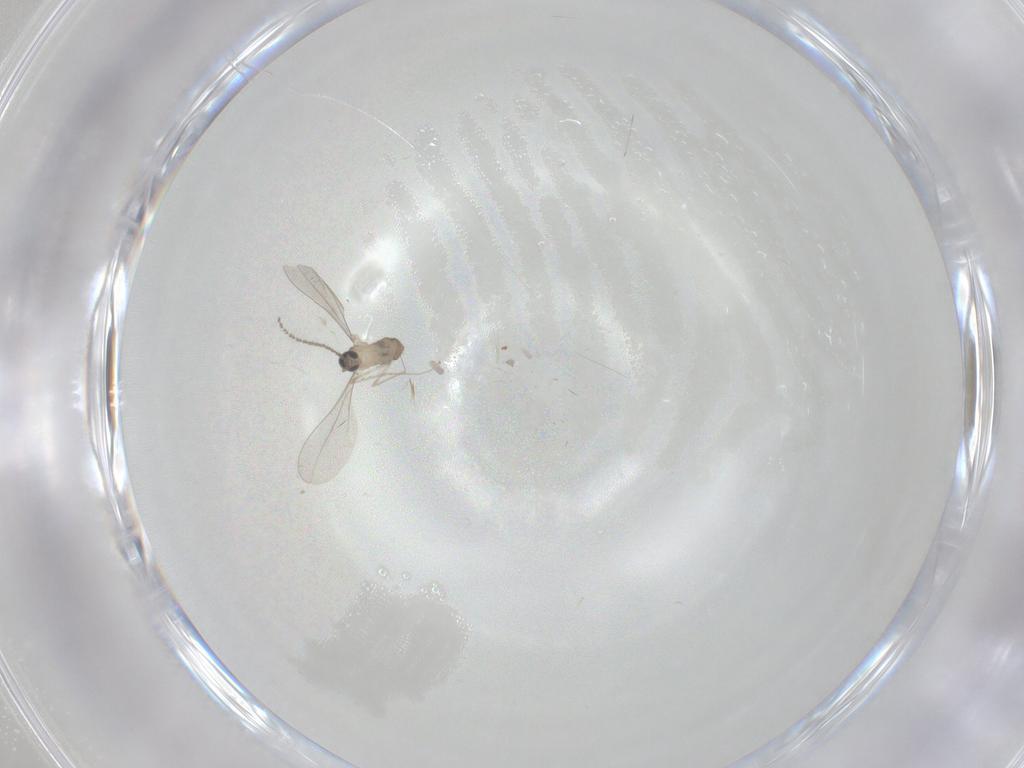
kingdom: Animalia
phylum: Arthropoda
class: Insecta
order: Diptera
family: Cecidomyiidae
